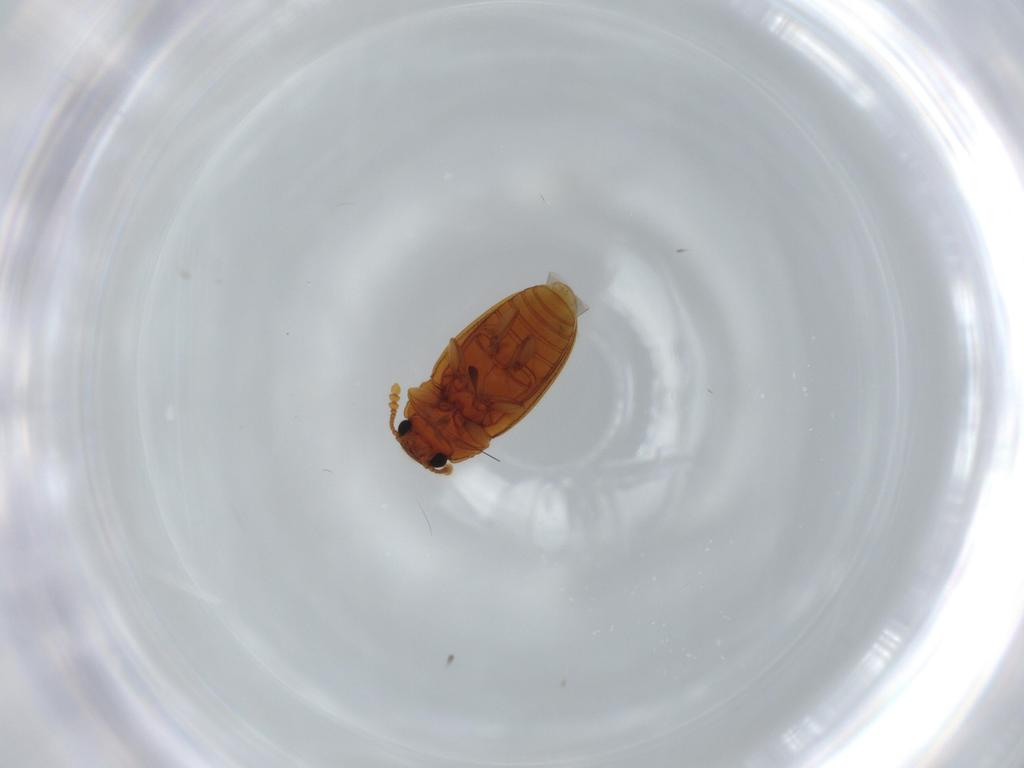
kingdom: Animalia
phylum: Arthropoda
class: Insecta
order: Coleoptera
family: Erotylidae
